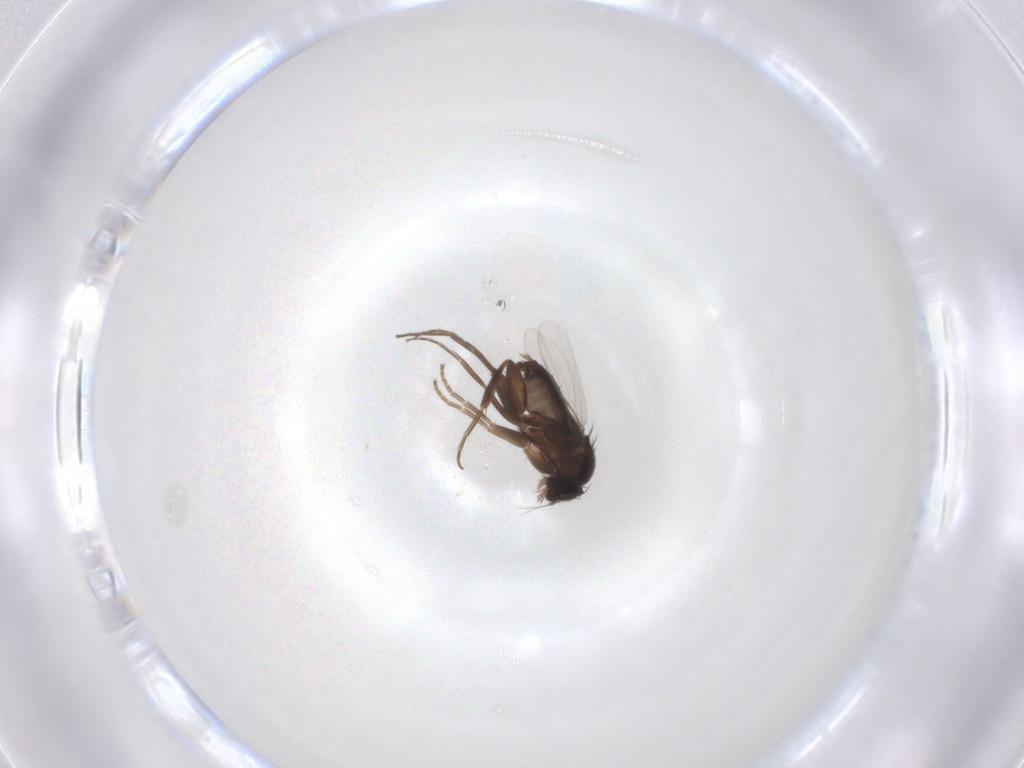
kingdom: Animalia
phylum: Arthropoda
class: Insecta
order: Diptera
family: Phoridae
